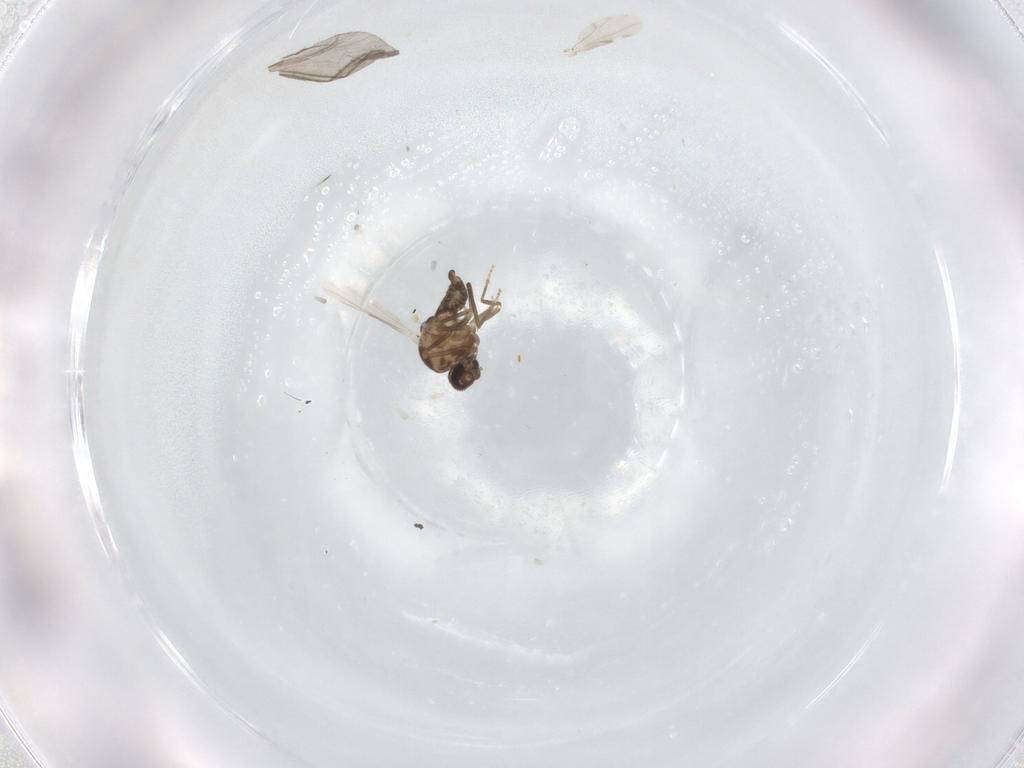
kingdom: Animalia
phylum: Arthropoda
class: Insecta
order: Diptera
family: Ceratopogonidae
